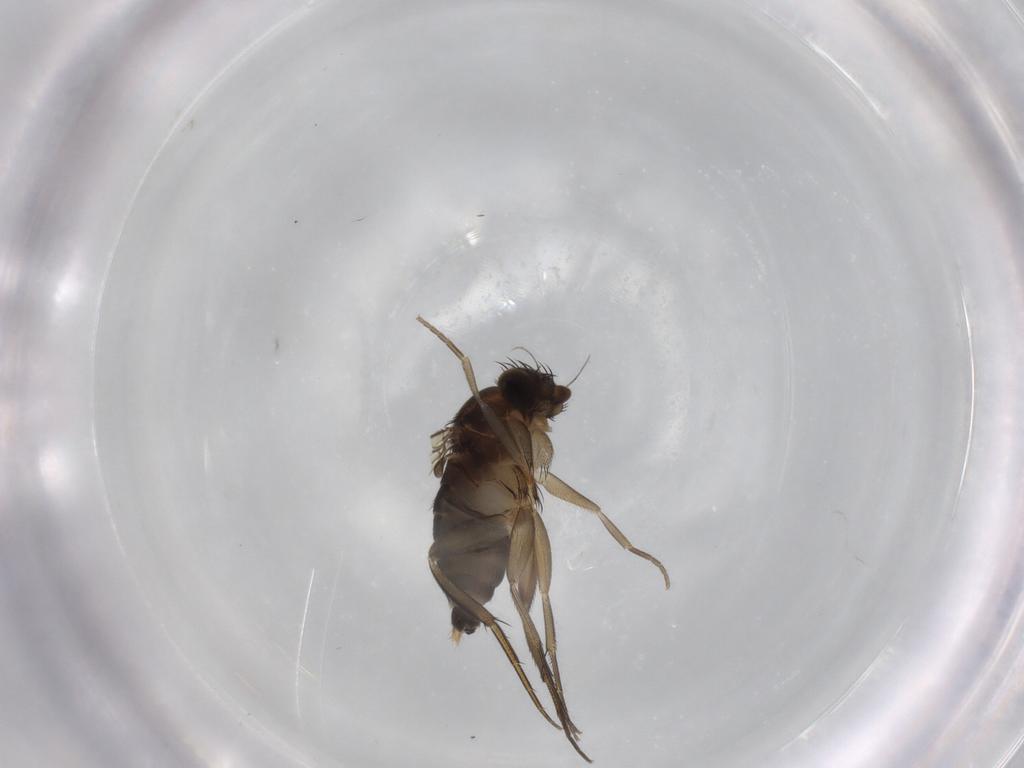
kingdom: Animalia
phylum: Arthropoda
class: Insecta
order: Diptera
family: Phoridae
